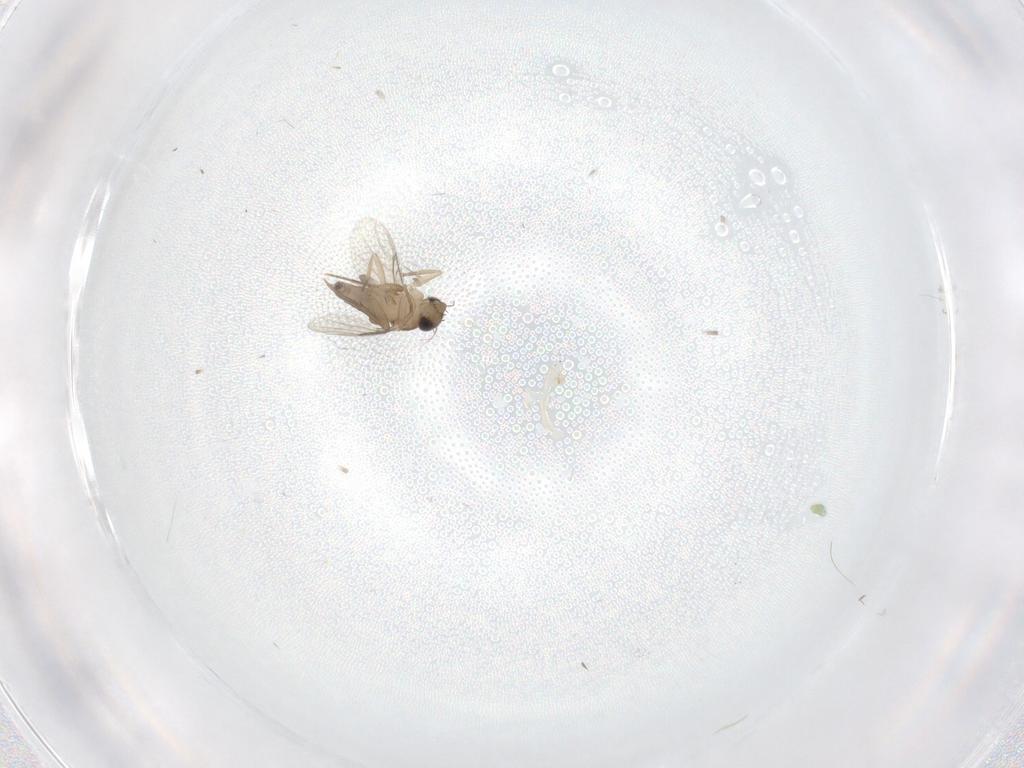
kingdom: Animalia
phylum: Arthropoda
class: Insecta
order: Diptera
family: Phoridae
